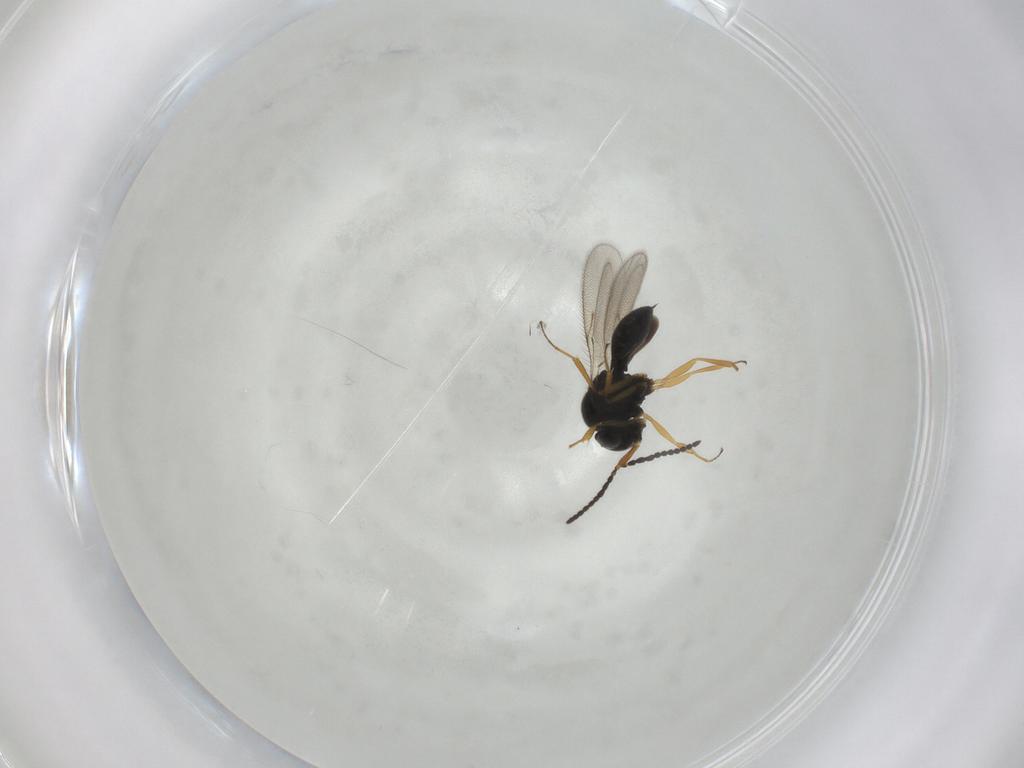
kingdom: Animalia
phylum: Arthropoda
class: Insecta
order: Hymenoptera
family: Scelionidae
